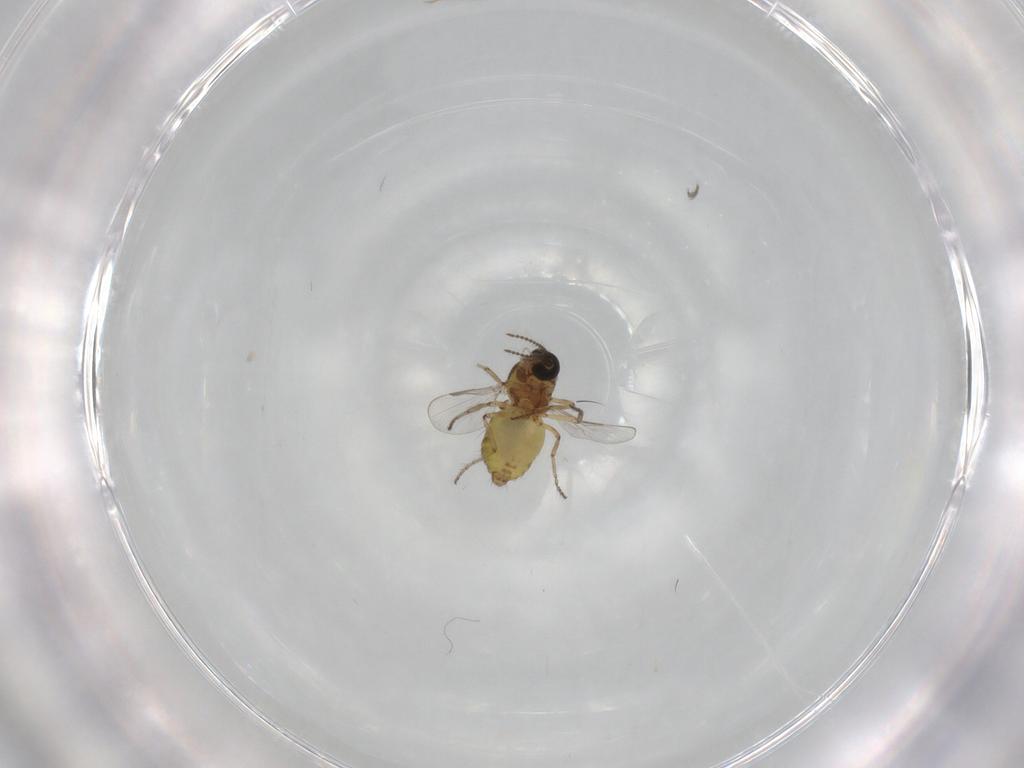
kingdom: Animalia
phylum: Arthropoda
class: Insecta
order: Diptera
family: Ceratopogonidae
